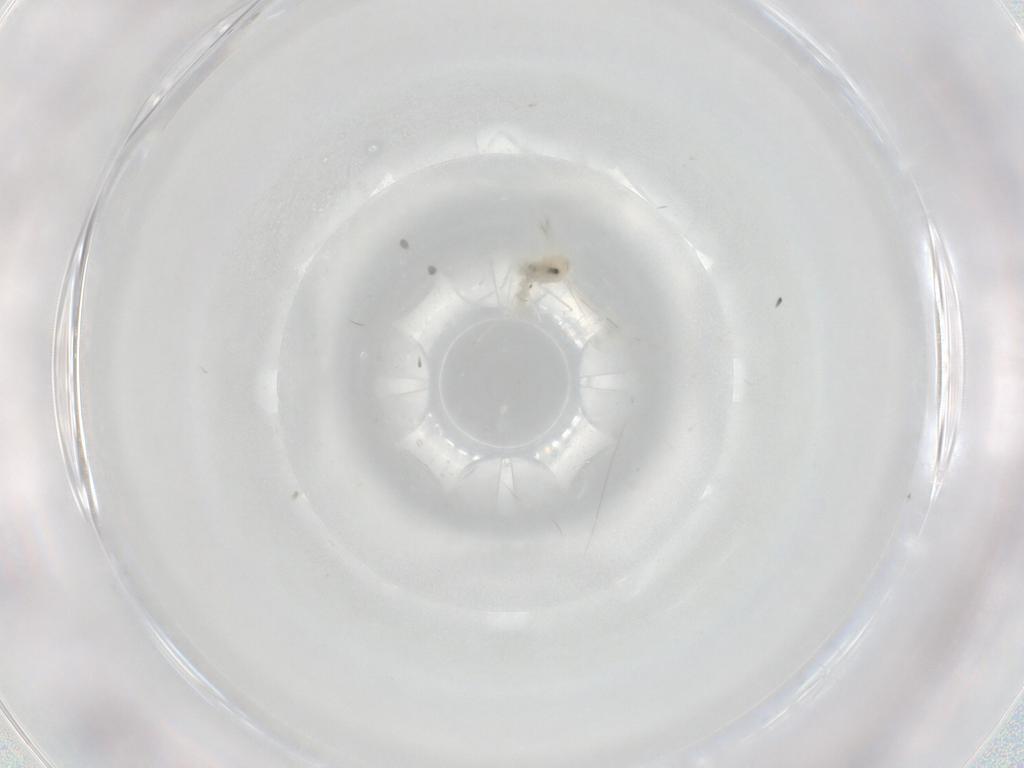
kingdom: Animalia
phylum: Arthropoda
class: Insecta
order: Diptera
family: Cecidomyiidae
